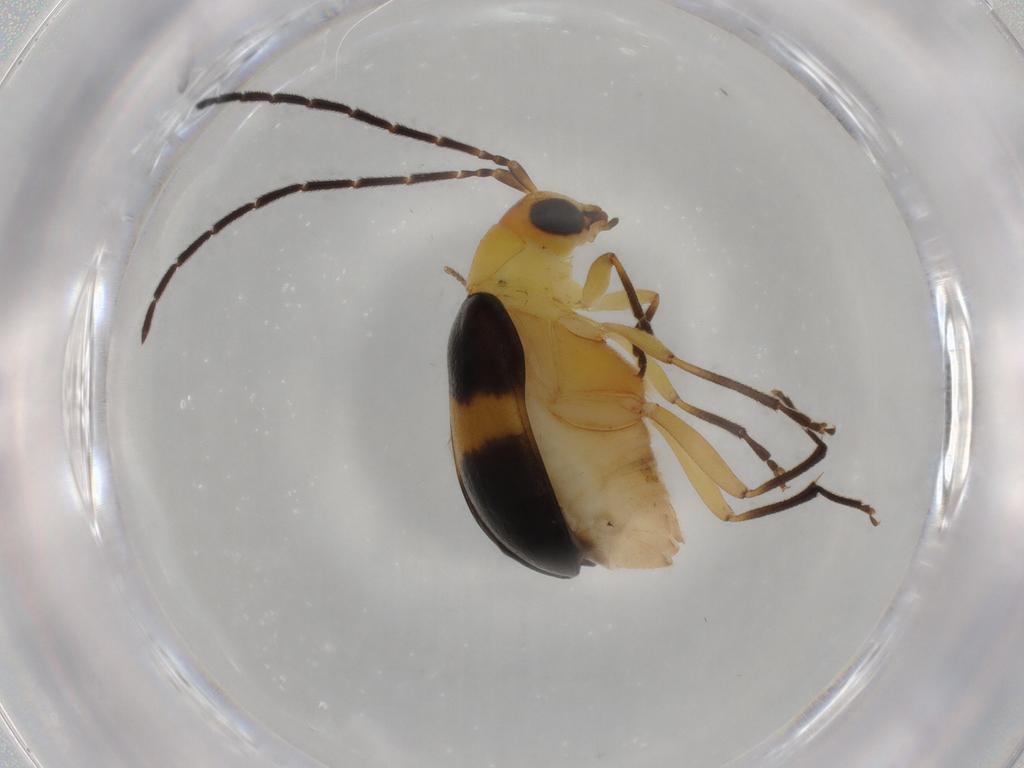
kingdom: Animalia
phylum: Arthropoda
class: Insecta
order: Coleoptera
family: Chrysomelidae
